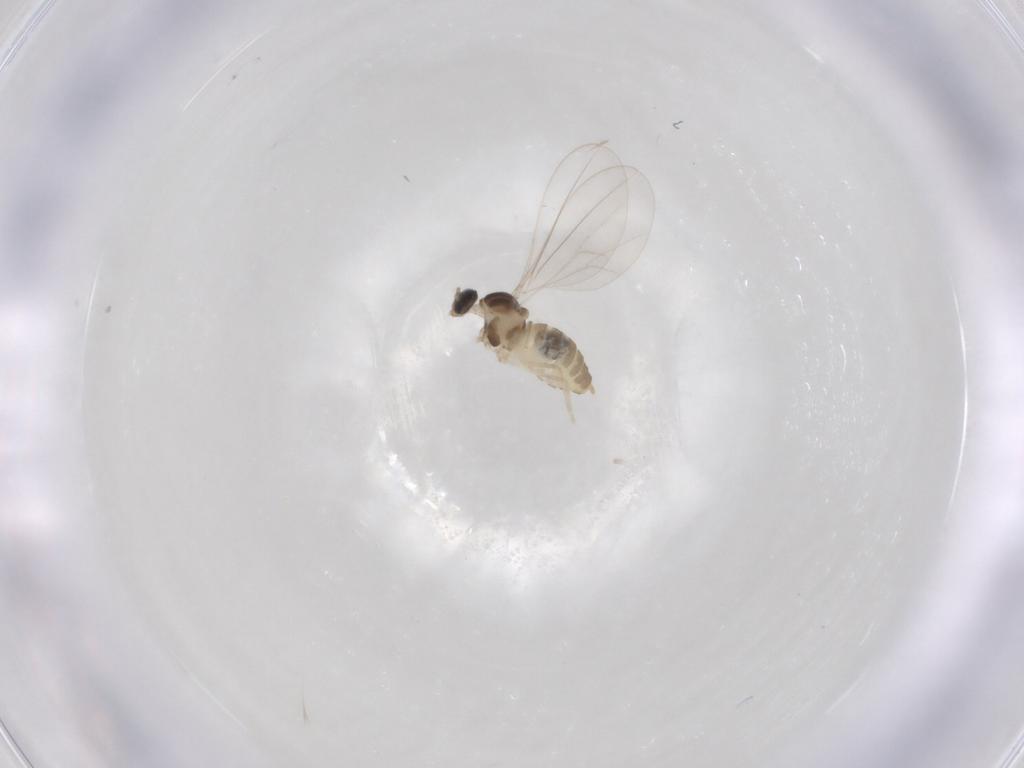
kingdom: Animalia
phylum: Arthropoda
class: Insecta
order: Diptera
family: Cecidomyiidae
